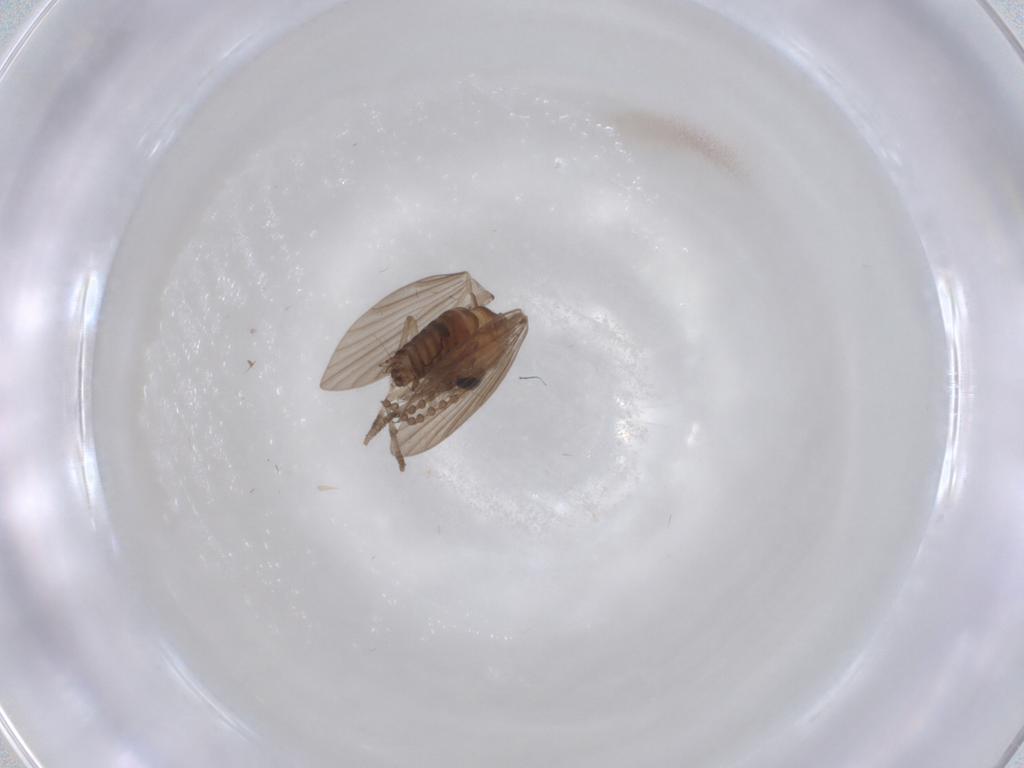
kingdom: Animalia
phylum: Arthropoda
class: Insecta
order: Diptera
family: Psychodidae
